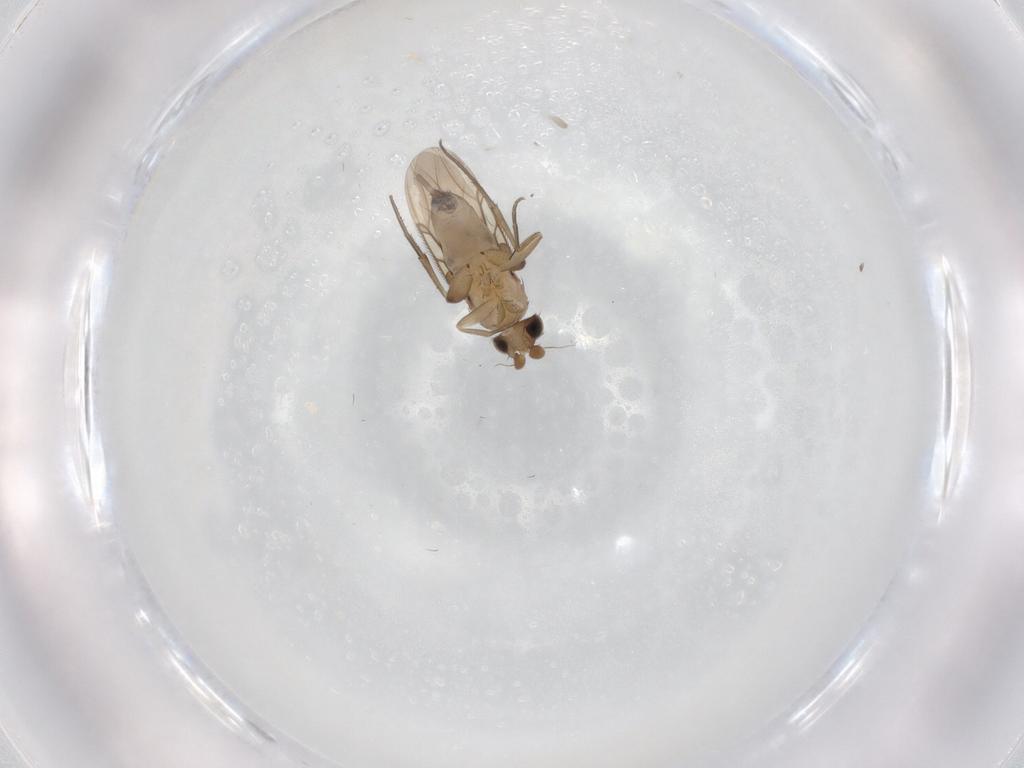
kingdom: Animalia
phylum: Arthropoda
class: Insecta
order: Diptera
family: Phoridae
